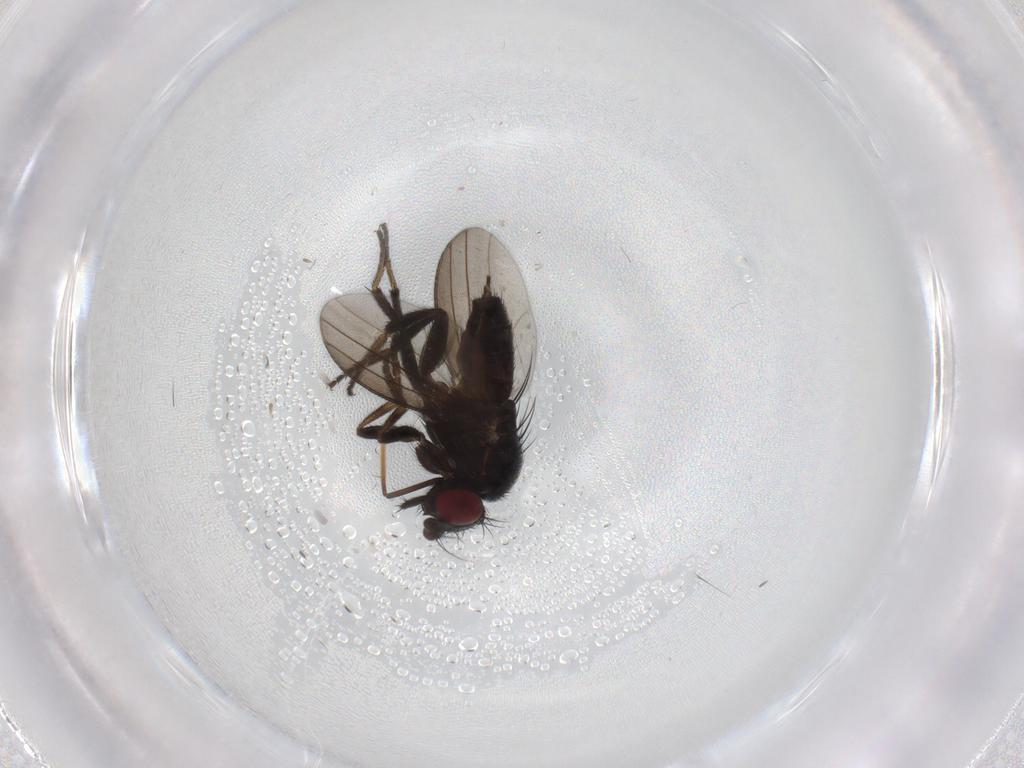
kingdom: Animalia
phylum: Arthropoda
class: Insecta
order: Diptera
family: Milichiidae
